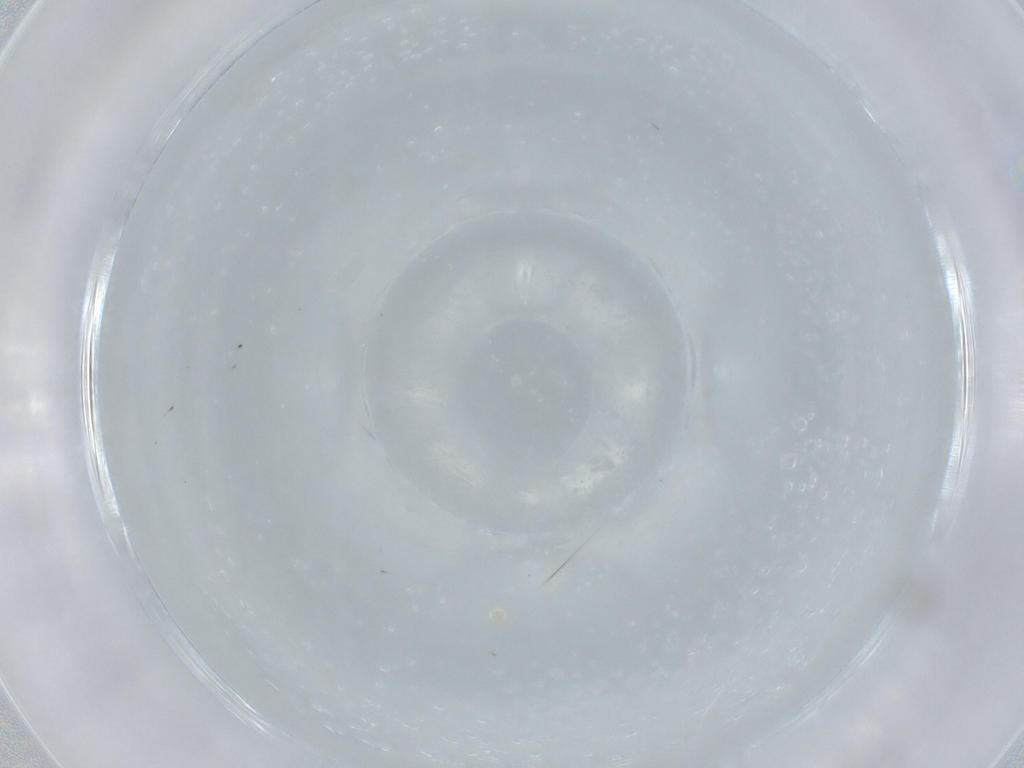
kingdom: Animalia
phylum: Arthropoda
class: Insecta
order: Diptera
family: Cecidomyiidae
